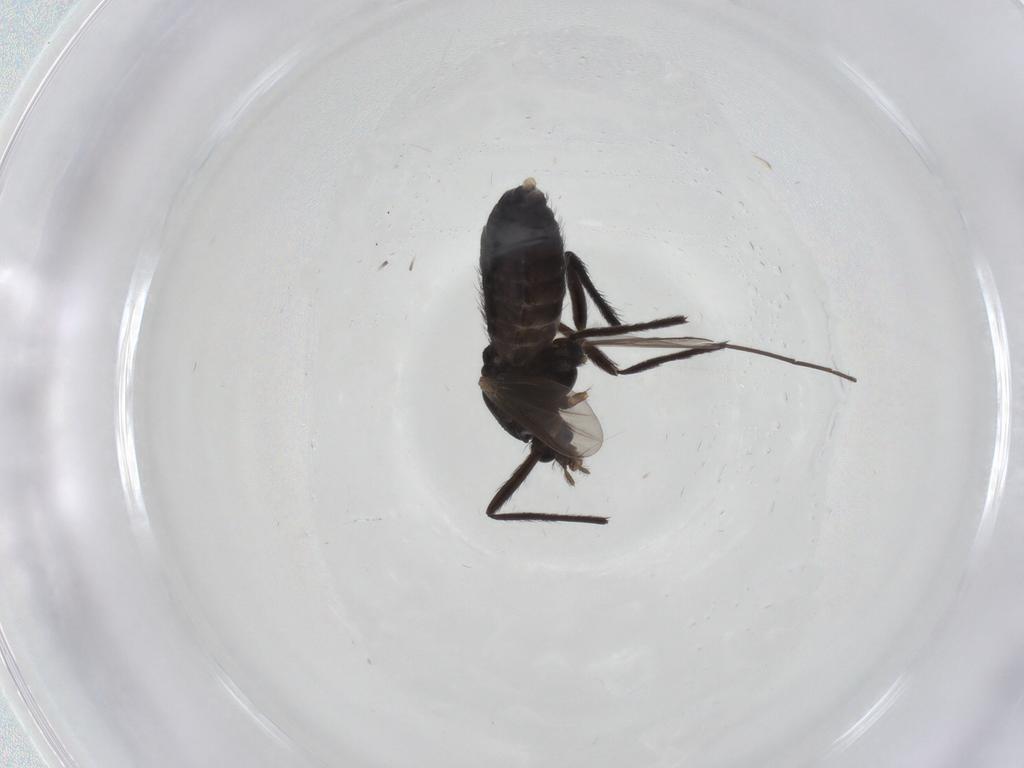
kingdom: Animalia
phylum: Arthropoda
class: Insecta
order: Diptera
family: Chironomidae
